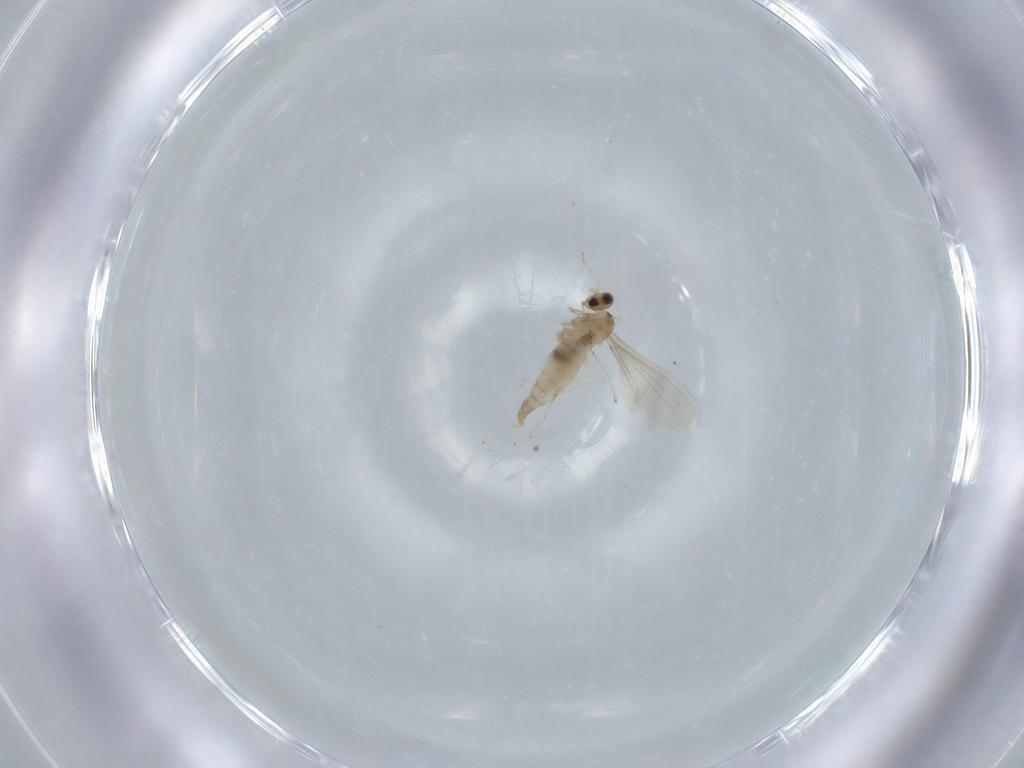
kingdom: Animalia
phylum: Arthropoda
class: Insecta
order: Diptera
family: Cecidomyiidae
